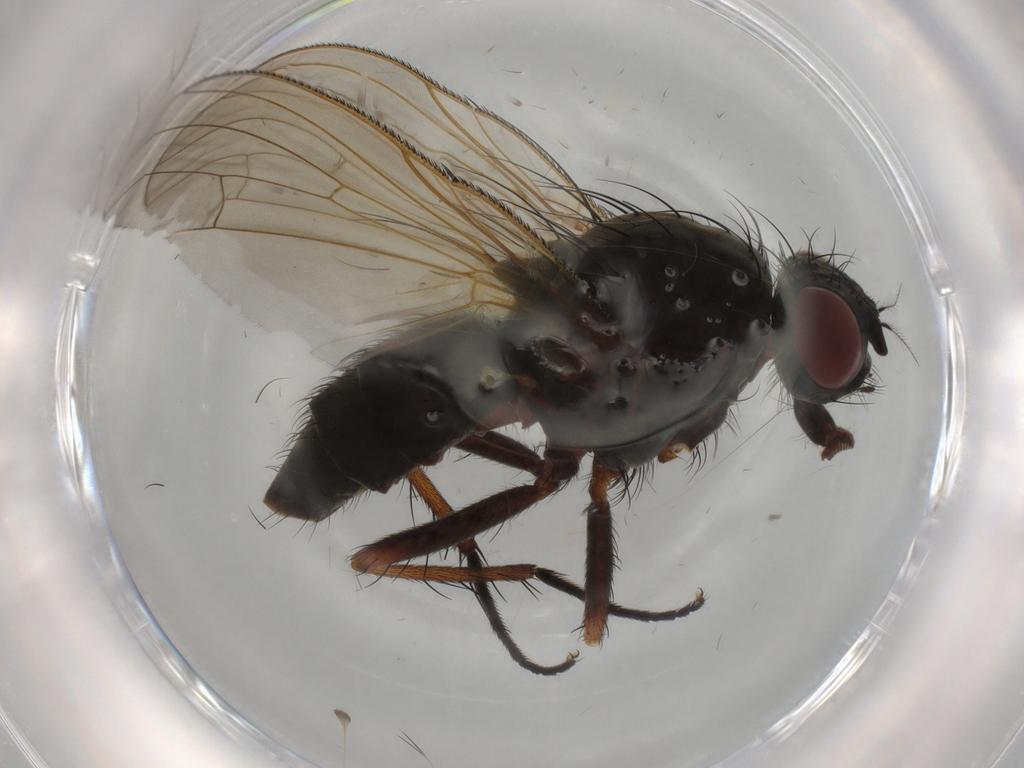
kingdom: Animalia
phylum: Arthropoda
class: Insecta
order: Diptera
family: Anthomyiidae
